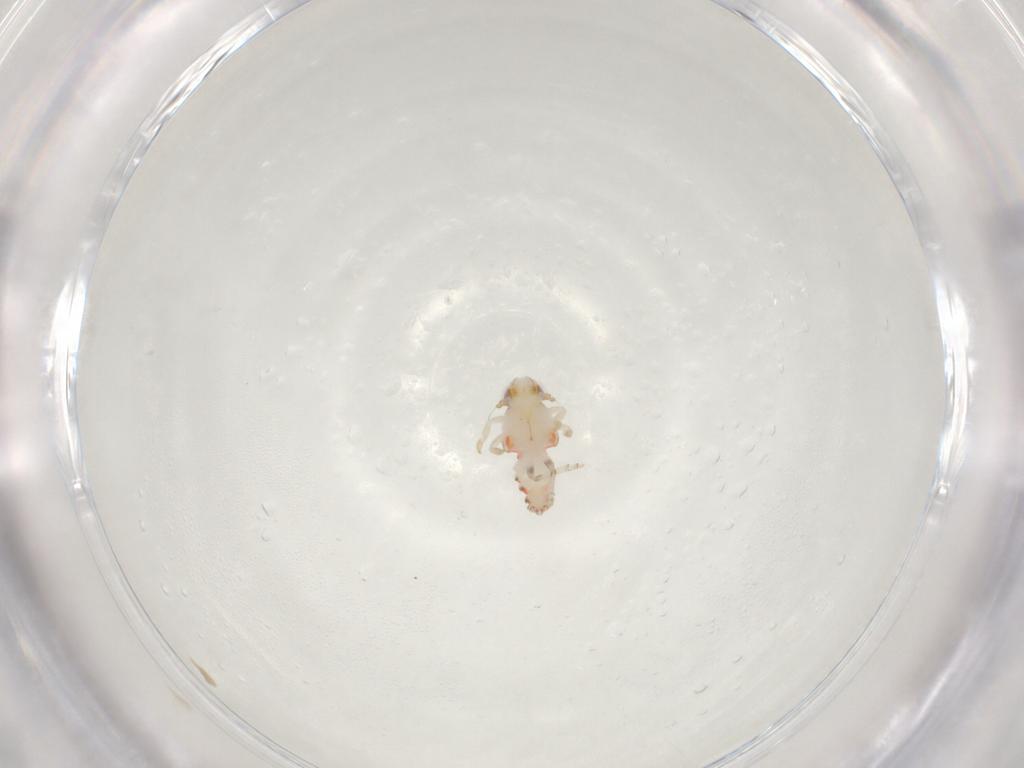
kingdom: Animalia
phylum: Arthropoda
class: Insecta
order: Hemiptera
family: Nogodinidae
